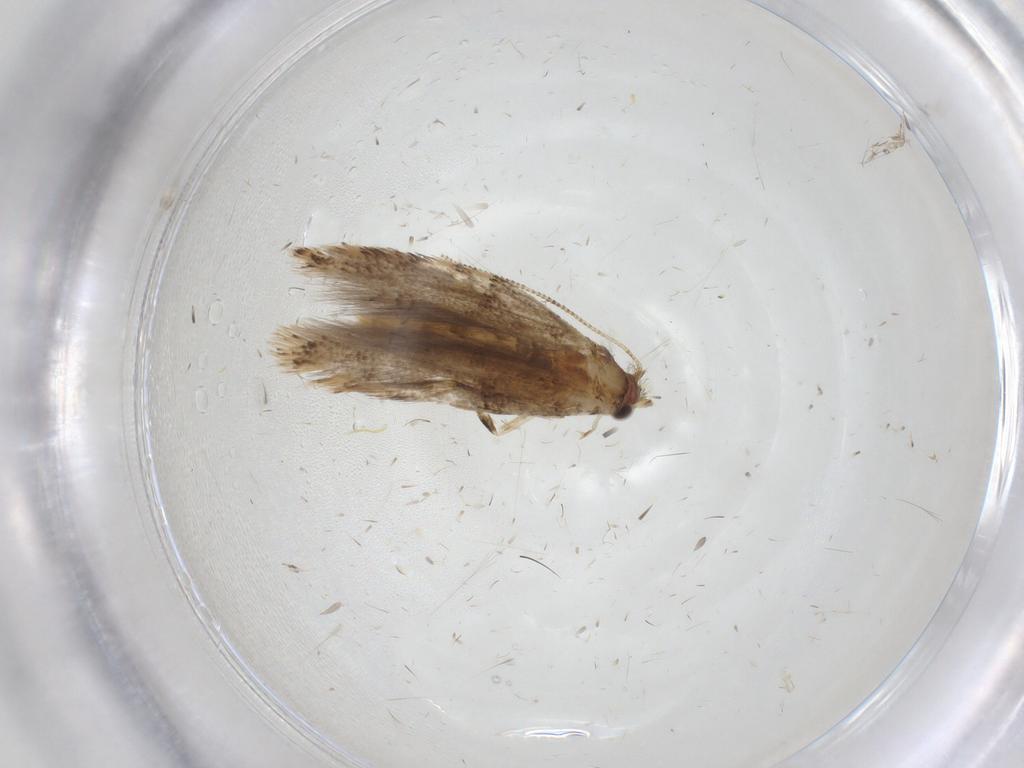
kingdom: Animalia
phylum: Arthropoda
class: Insecta
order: Lepidoptera
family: Tineidae
